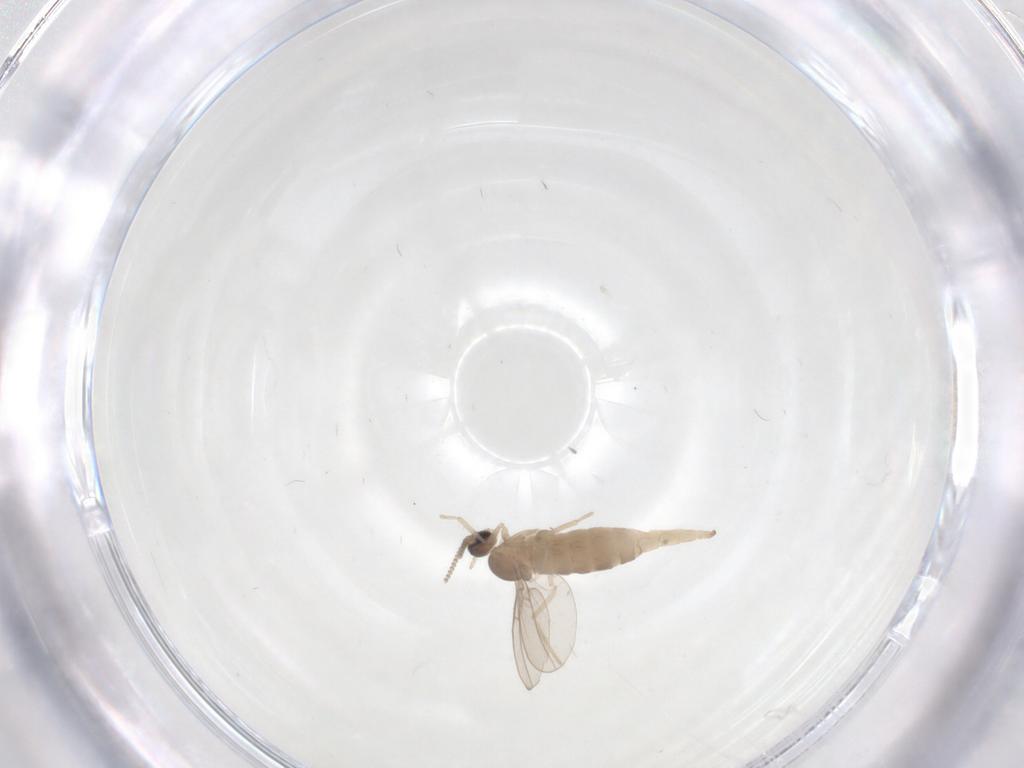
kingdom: Animalia
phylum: Arthropoda
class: Insecta
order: Diptera
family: Cecidomyiidae
